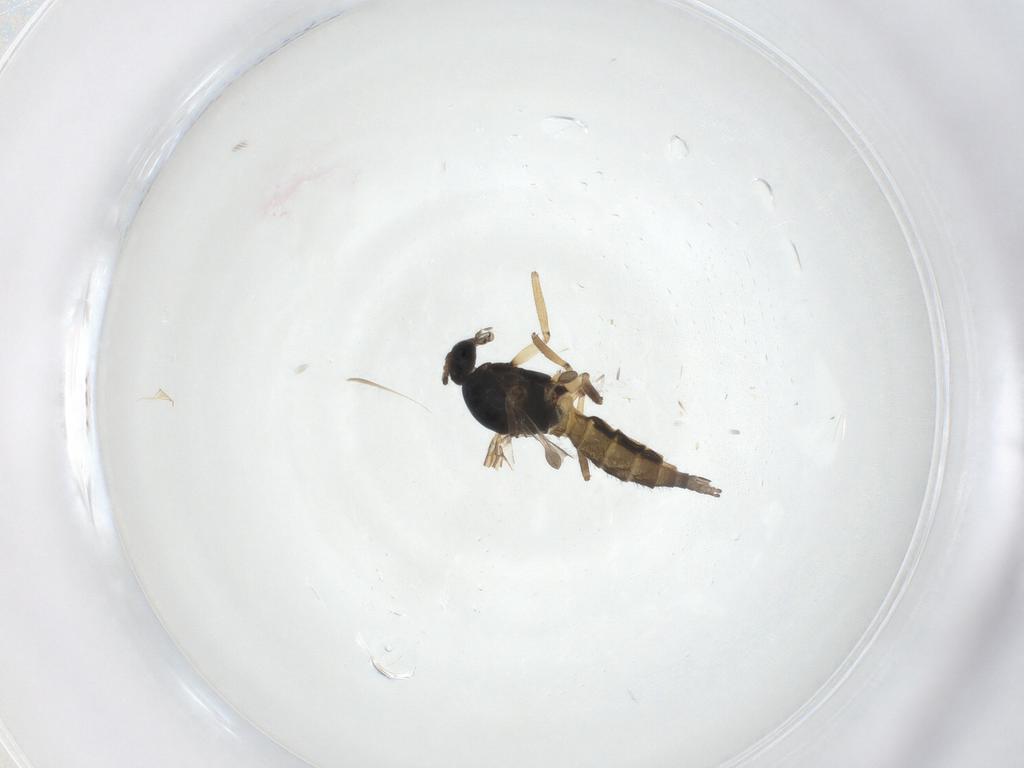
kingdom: Animalia
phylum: Arthropoda
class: Insecta
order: Diptera
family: Sciaridae
